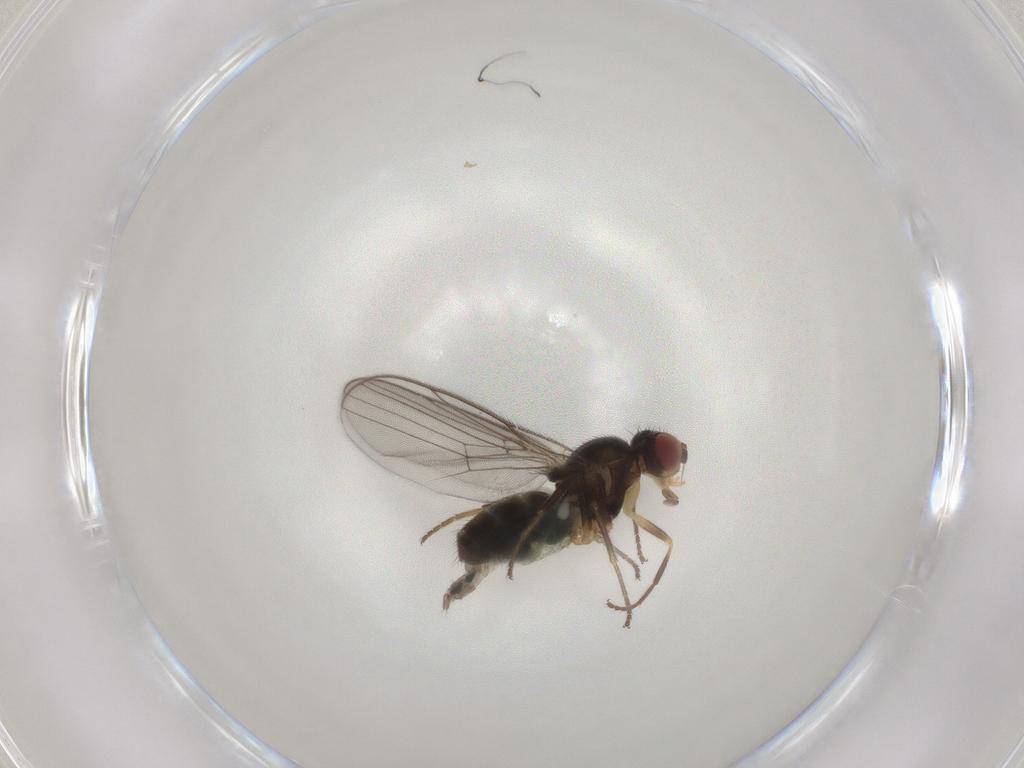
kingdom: Animalia
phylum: Arthropoda
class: Insecta
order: Diptera
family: Chloropidae
